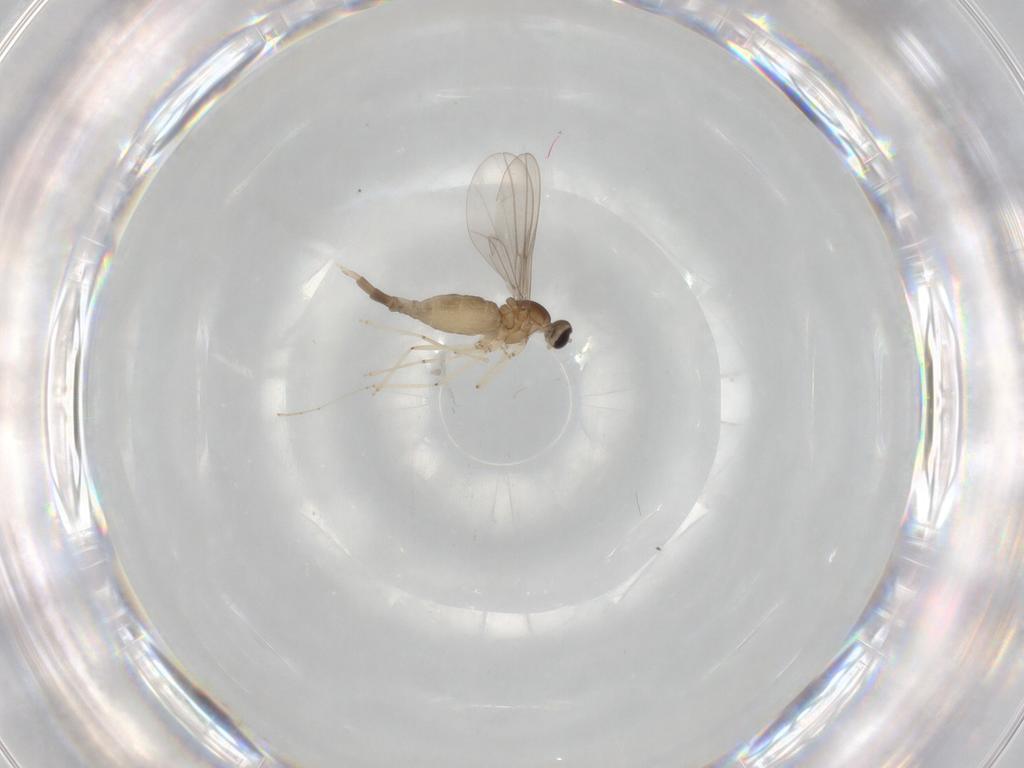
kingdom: Animalia
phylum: Arthropoda
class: Insecta
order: Diptera
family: Cecidomyiidae
